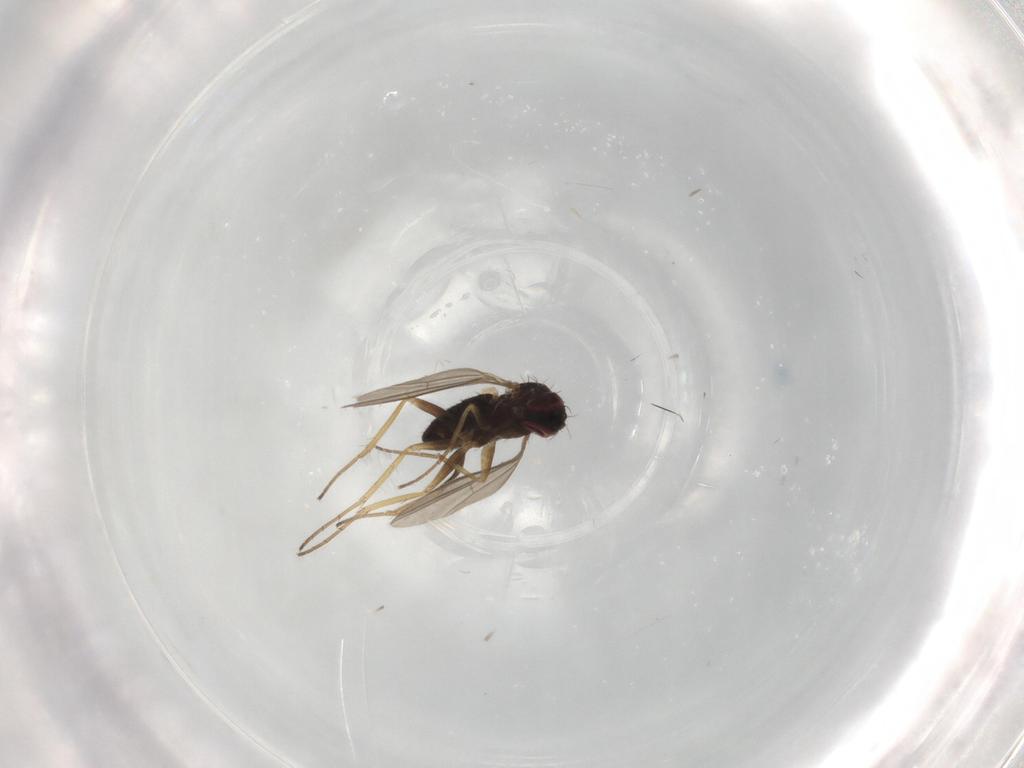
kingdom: Animalia
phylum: Arthropoda
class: Insecta
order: Diptera
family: Dolichopodidae
